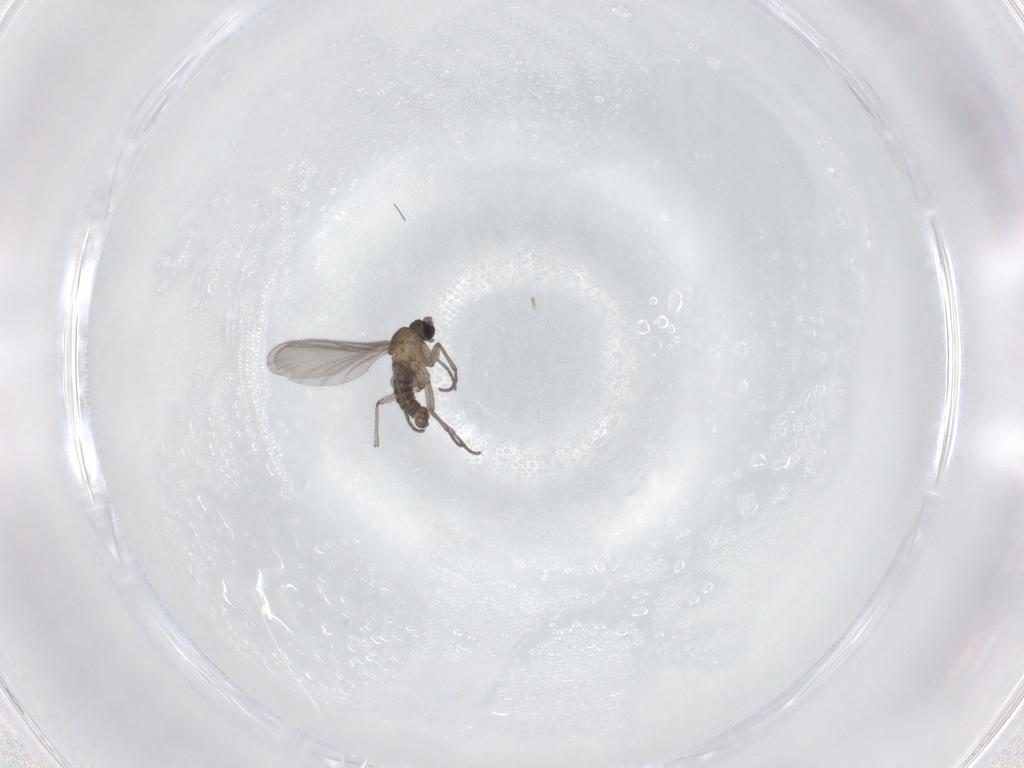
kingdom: Animalia
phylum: Arthropoda
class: Insecta
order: Diptera
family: Sciaridae
